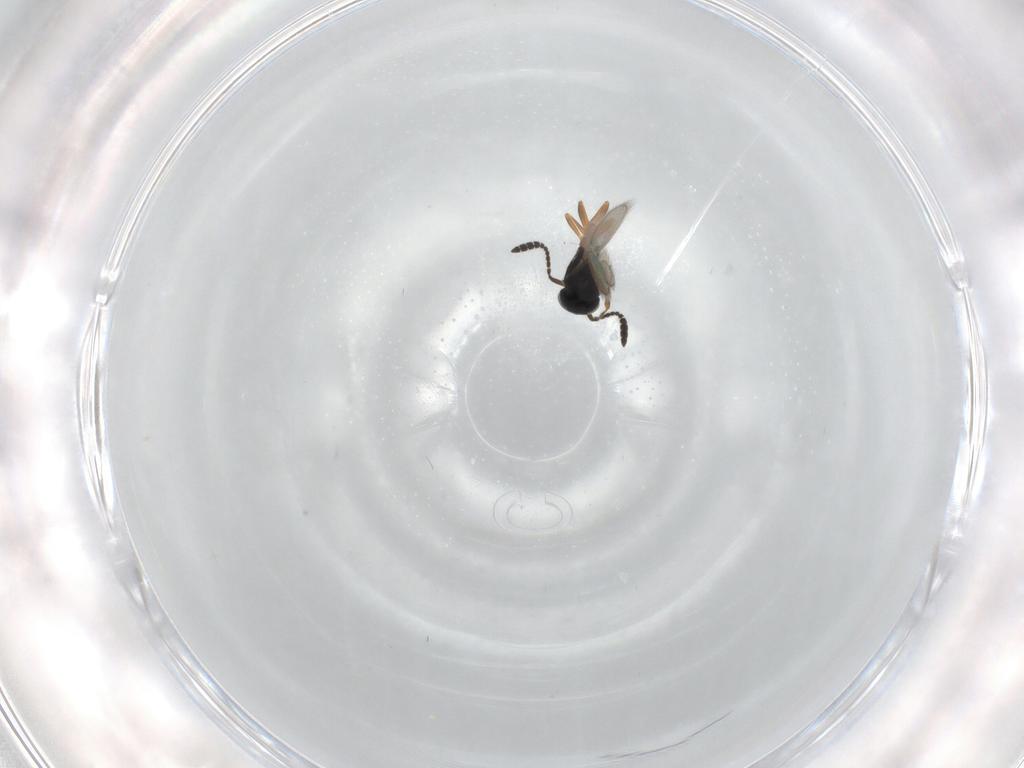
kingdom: Animalia
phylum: Arthropoda
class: Insecta
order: Hymenoptera
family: Scelionidae
